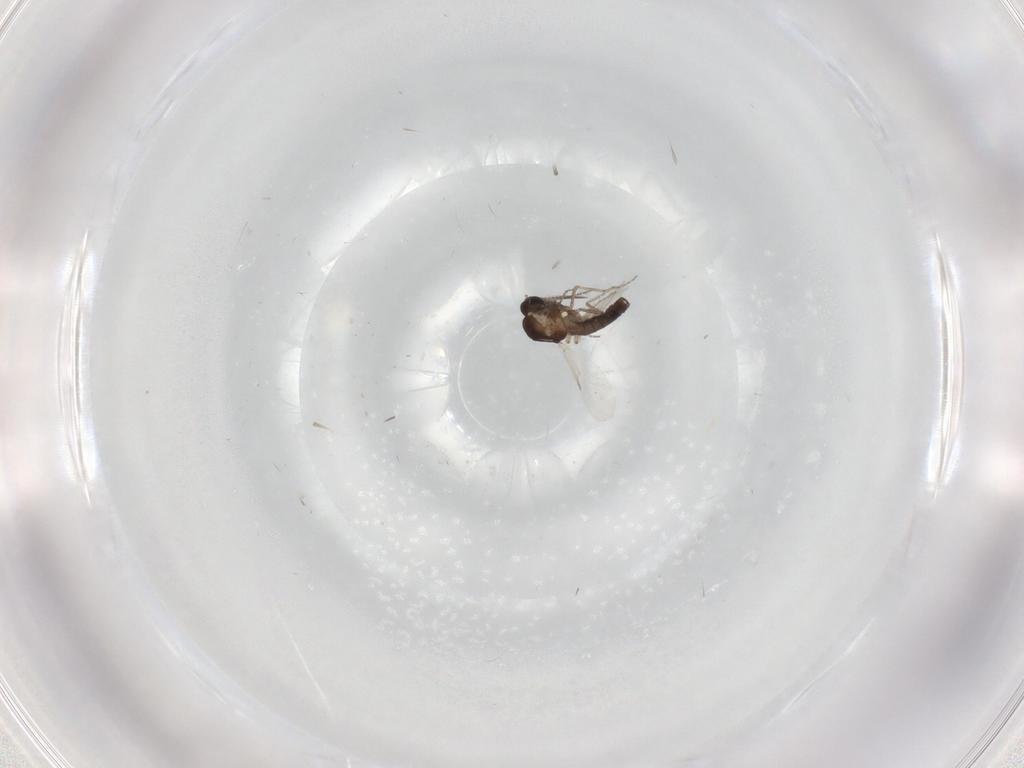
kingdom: Animalia
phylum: Arthropoda
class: Insecta
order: Diptera
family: Ceratopogonidae
